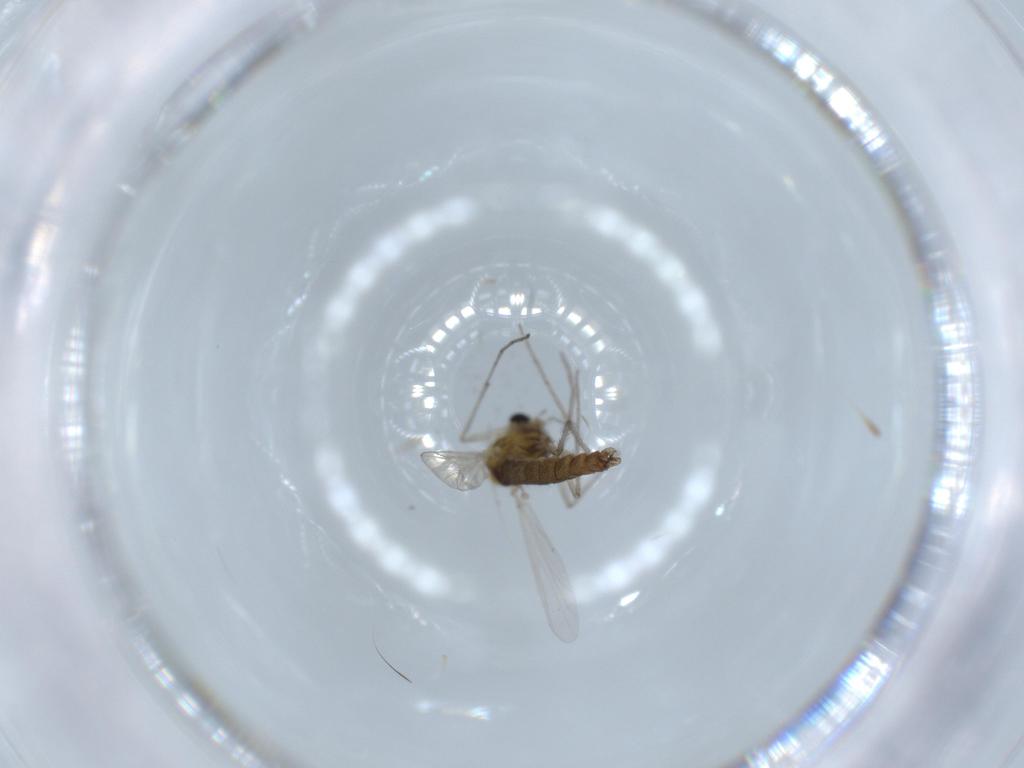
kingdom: Animalia
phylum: Arthropoda
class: Insecta
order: Diptera
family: Chironomidae
